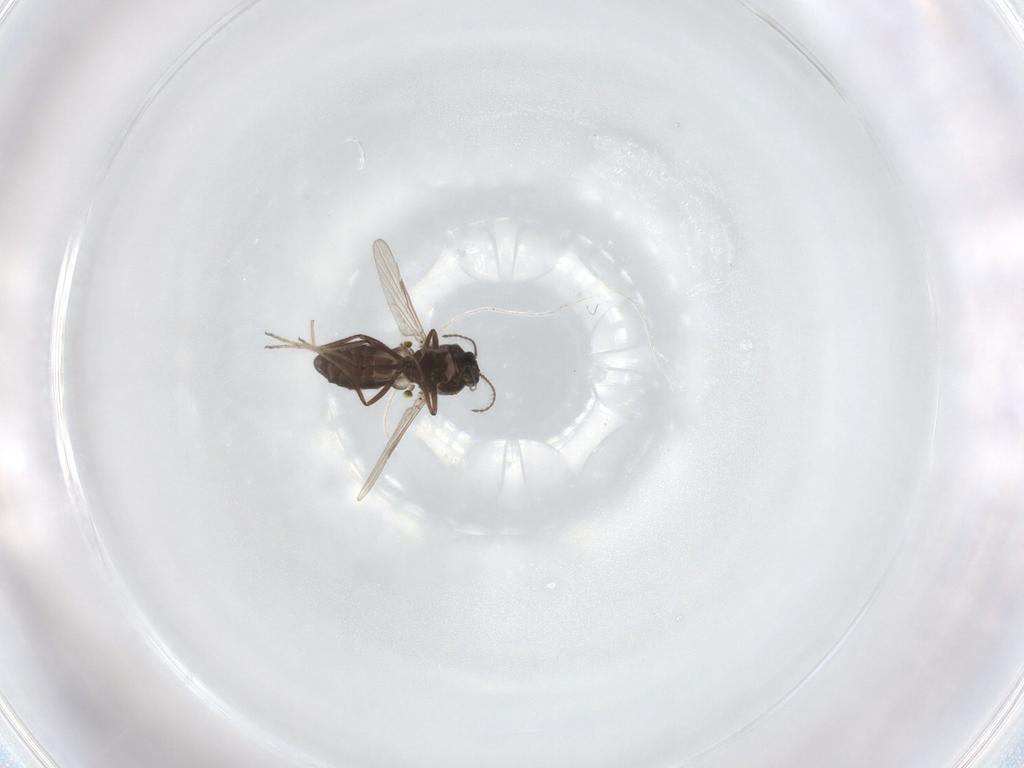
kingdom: Animalia
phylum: Arthropoda
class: Insecta
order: Diptera
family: Ceratopogonidae
